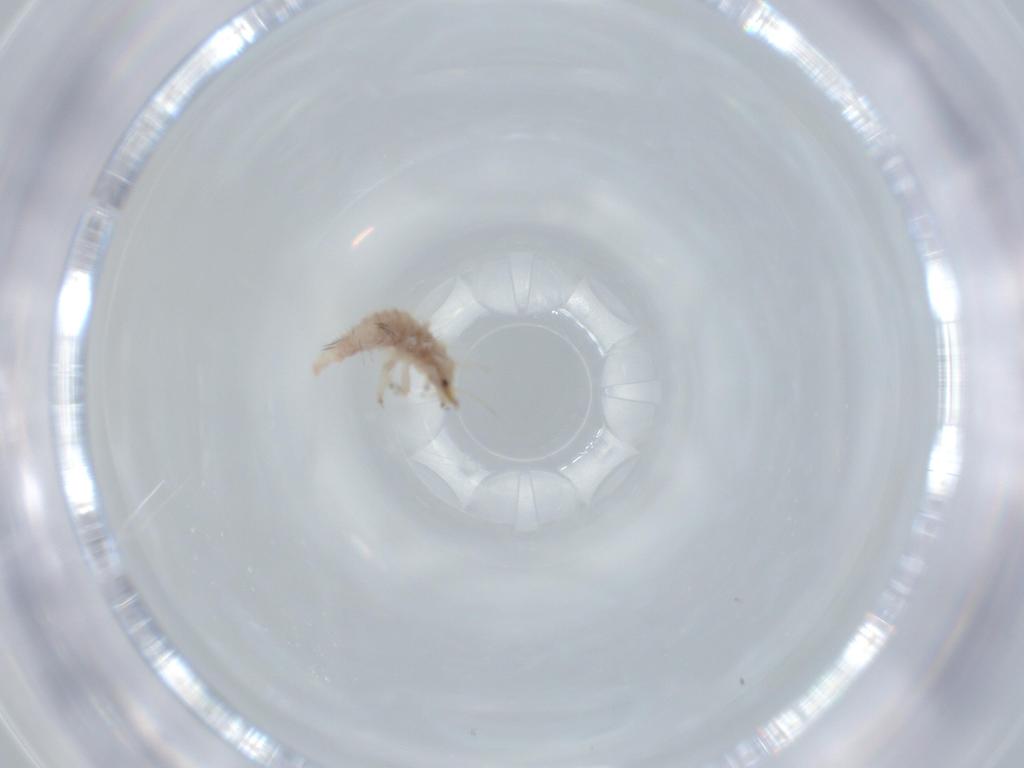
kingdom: Animalia
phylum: Arthropoda
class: Insecta
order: Neuroptera
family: Chrysopidae
